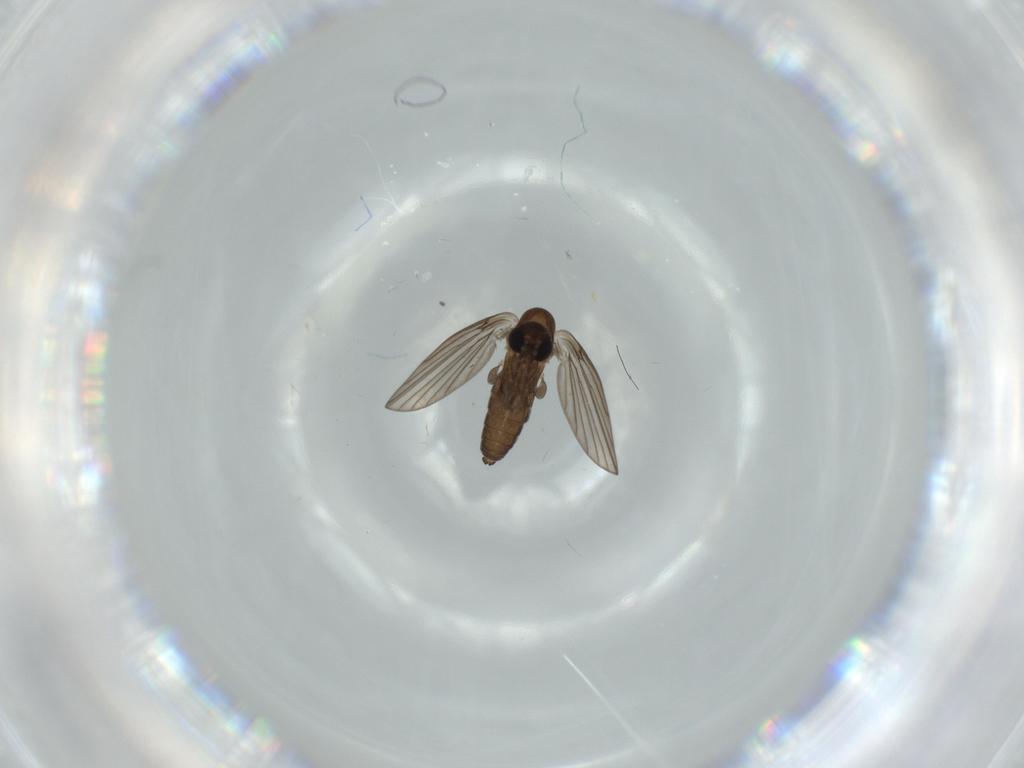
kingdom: Animalia
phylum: Arthropoda
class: Insecta
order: Diptera
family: Psychodidae
